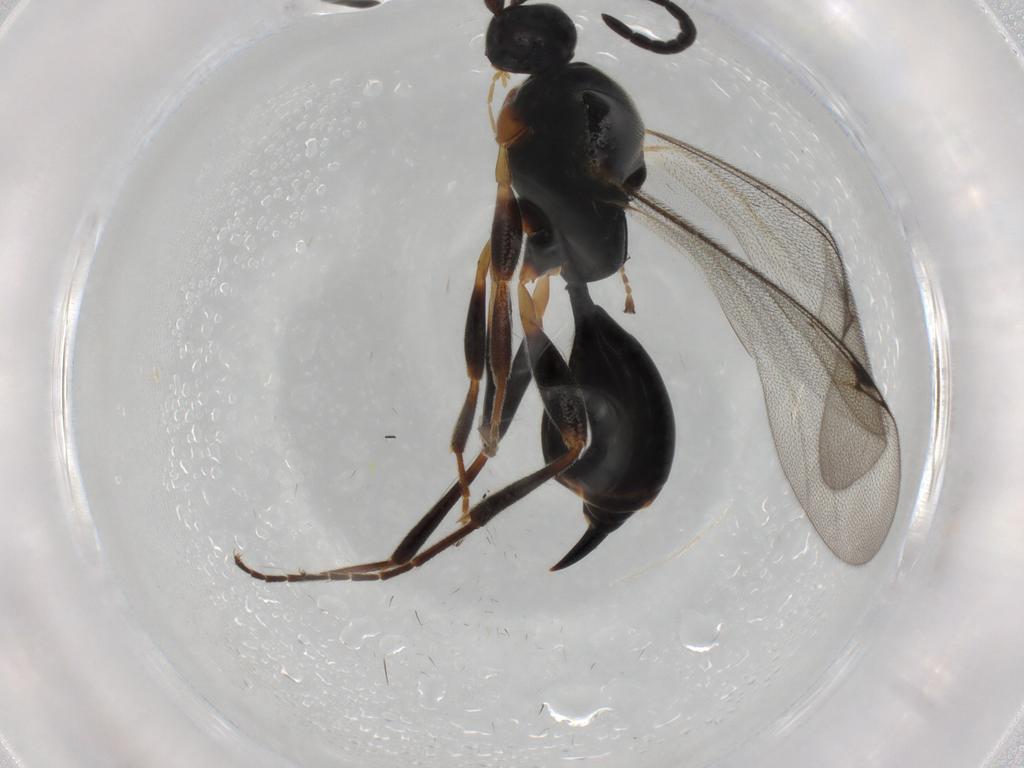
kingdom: Animalia
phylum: Arthropoda
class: Insecta
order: Hymenoptera
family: Proctotrupidae
